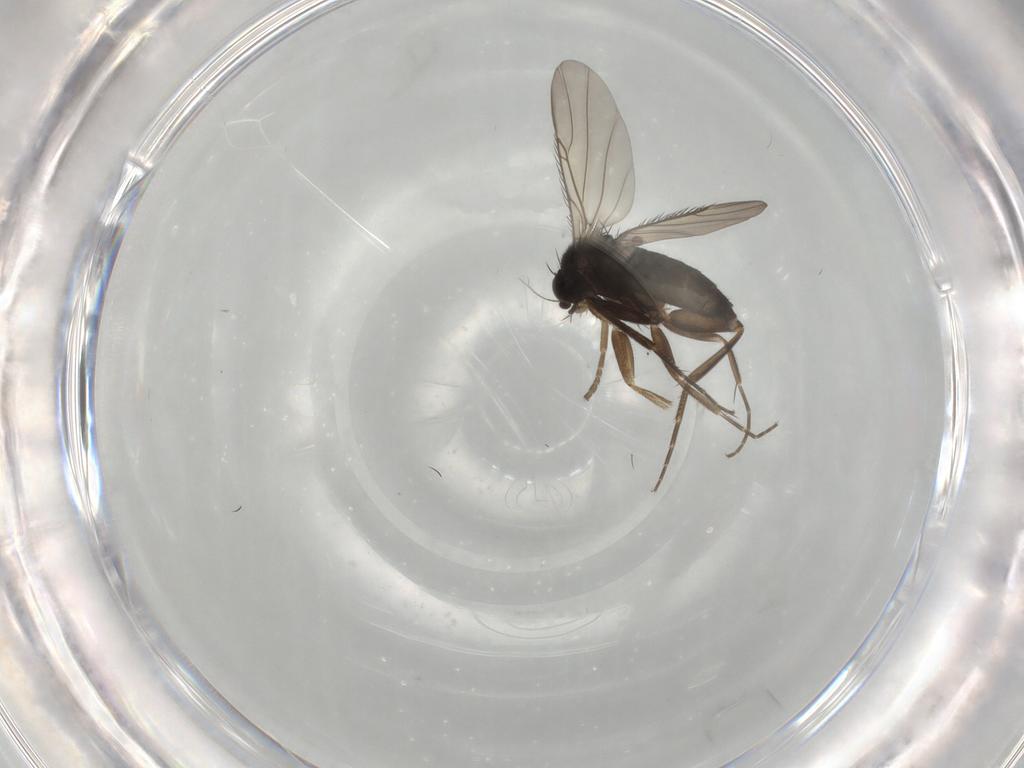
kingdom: Animalia
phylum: Arthropoda
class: Insecta
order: Diptera
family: Phoridae
